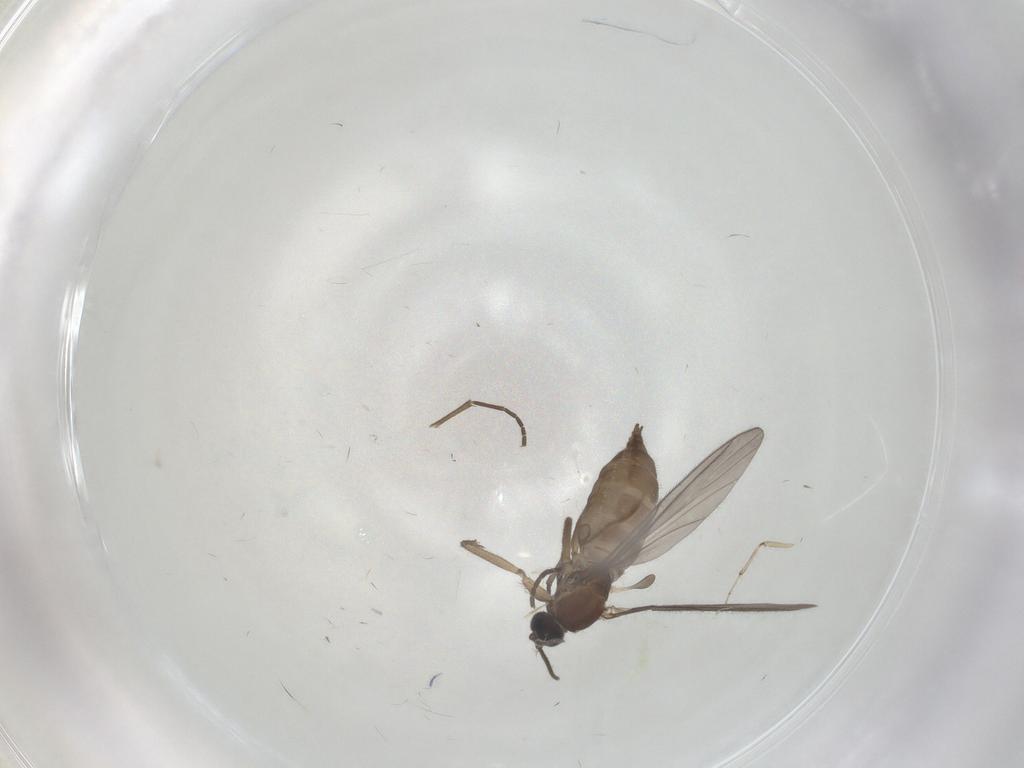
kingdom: Animalia
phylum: Arthropoda
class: Insecta
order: Diptera
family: Sciaridae
